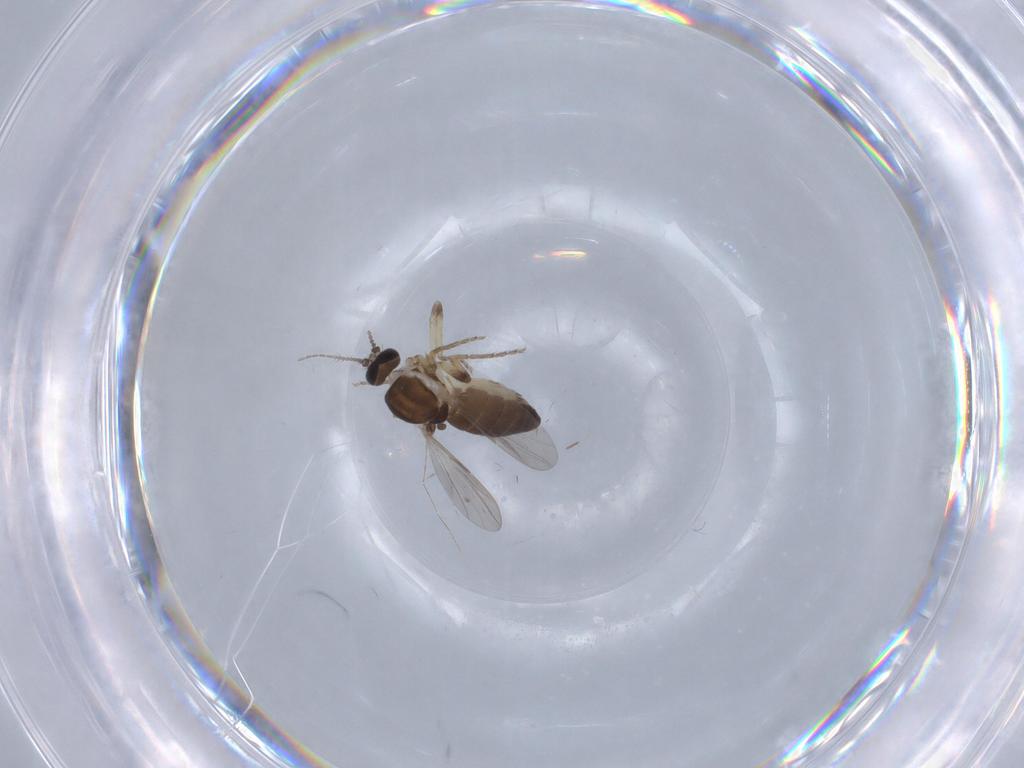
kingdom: Animalia
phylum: Arthropoda
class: Insecta
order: Diptera
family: Ceratopogonidae
